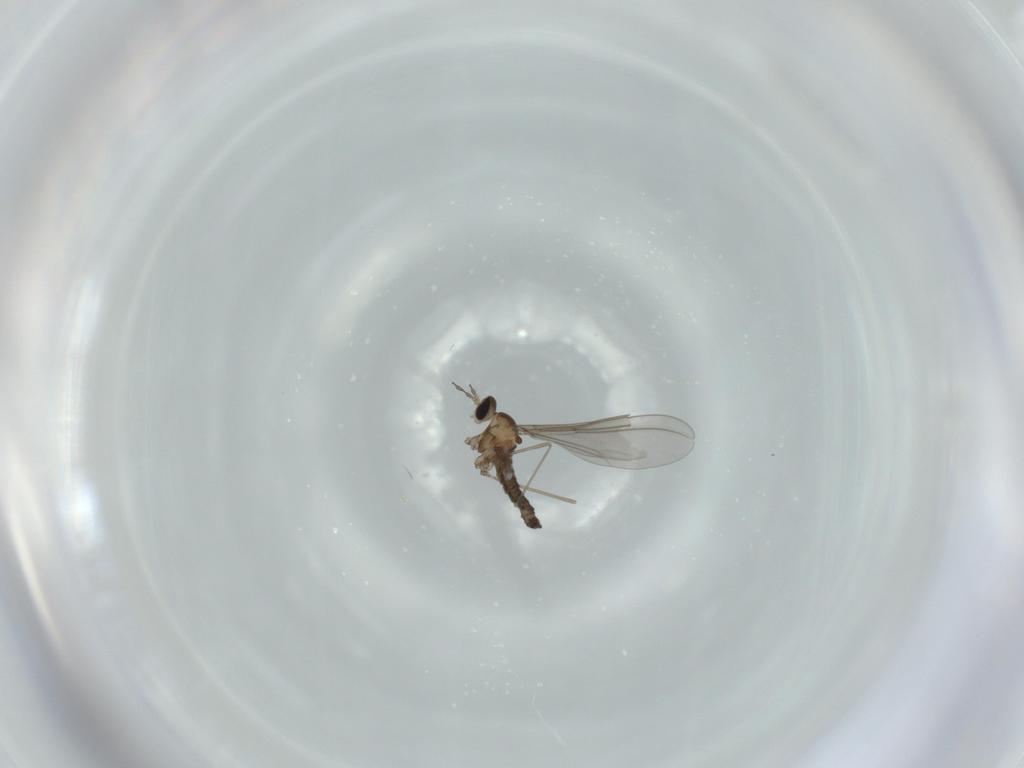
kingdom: Animalia
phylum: Arthropoda
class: Insecta
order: Diptera
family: Cecidomyiidae
